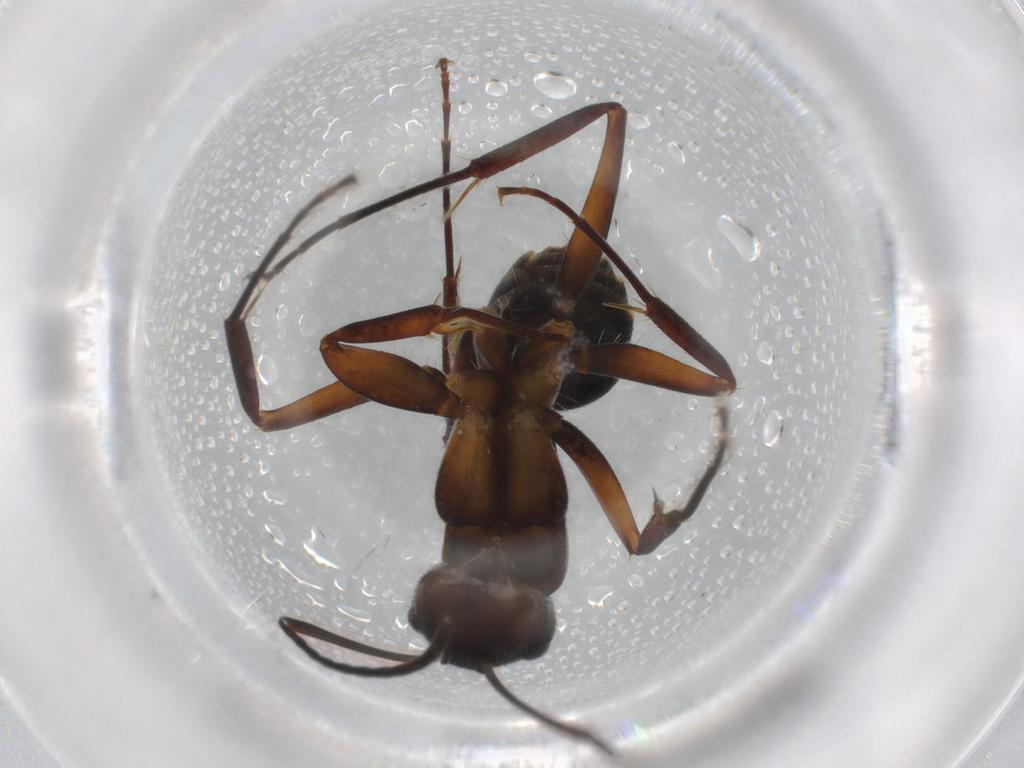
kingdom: Animalia
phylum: Arthropoda
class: Insecta
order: Hymenoptera
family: Formicidae
